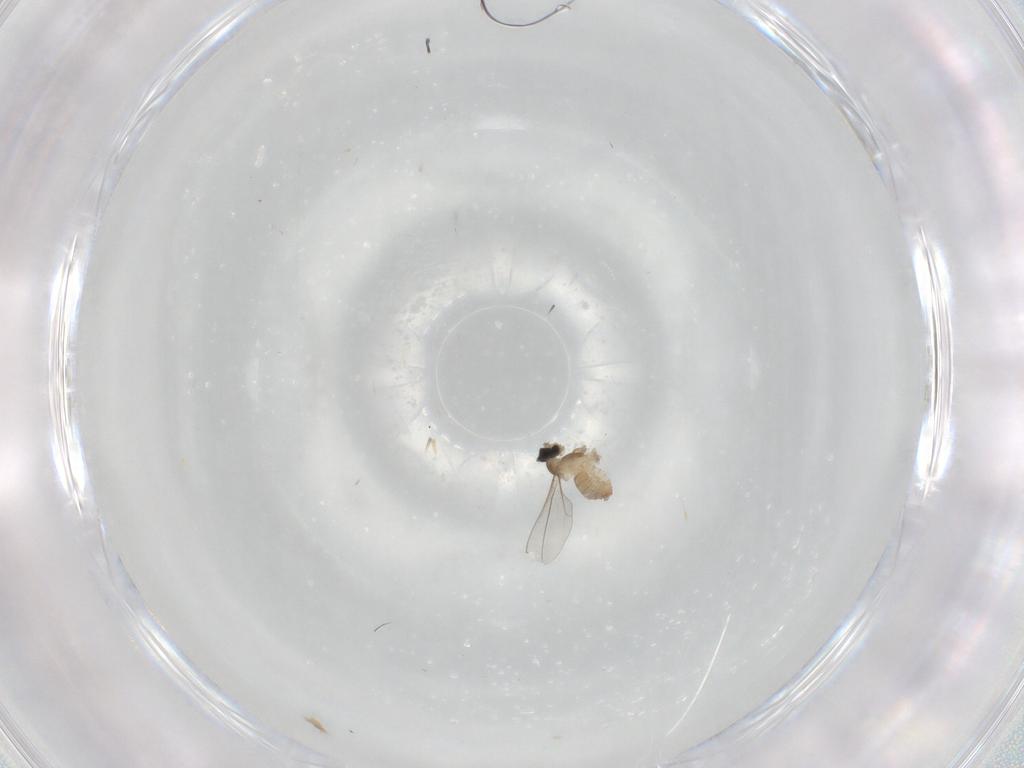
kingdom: Animalia
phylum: Arthropoda
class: Insecta
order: Diptera
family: Cecidomyiidae
